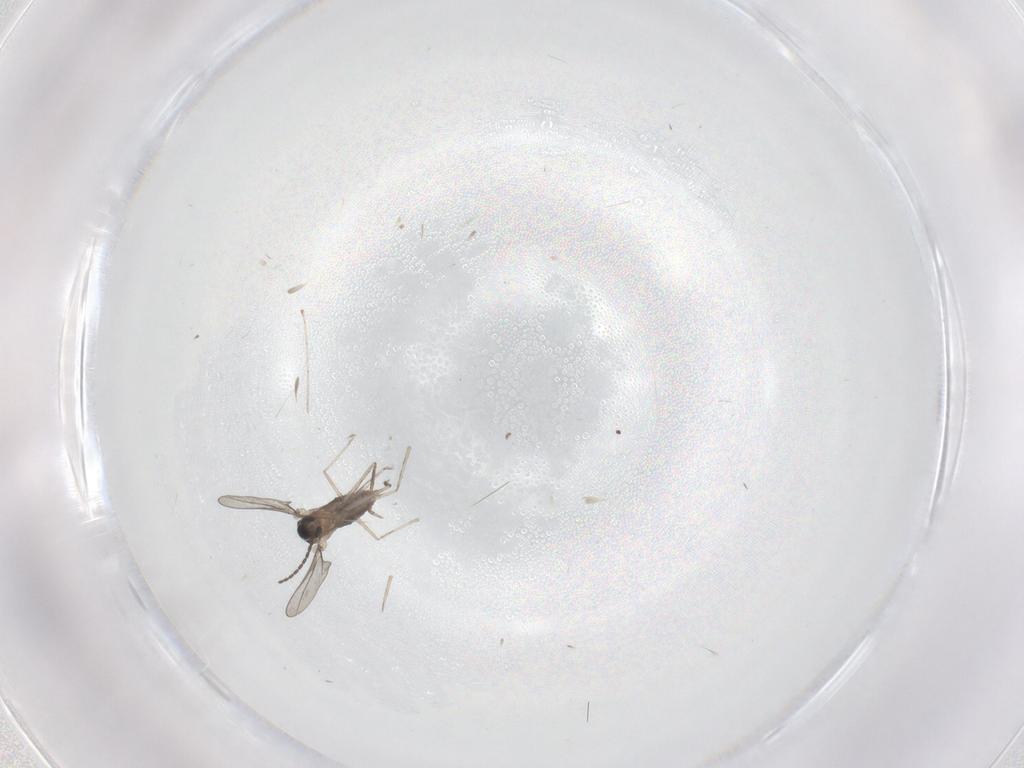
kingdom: Animalia
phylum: Arthropoda
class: Insecta
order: Diptera
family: Cecidomyiidae
